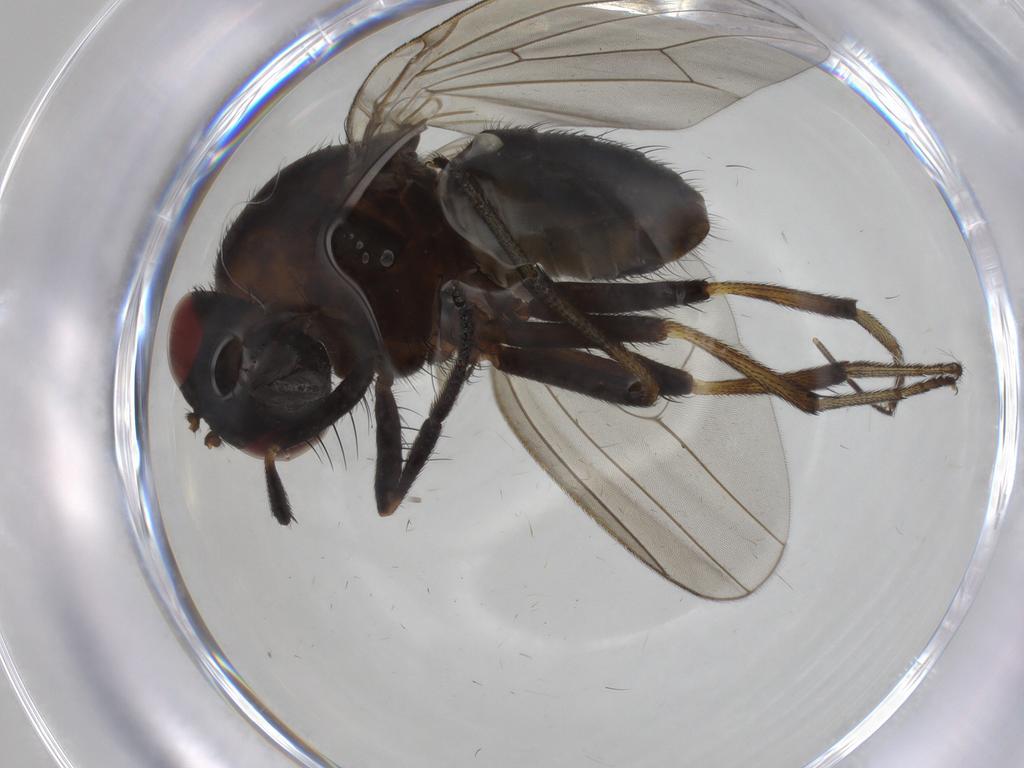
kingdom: Animalia
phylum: Arthropoda
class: Insecta
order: Diptera
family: Lauxaniidae
